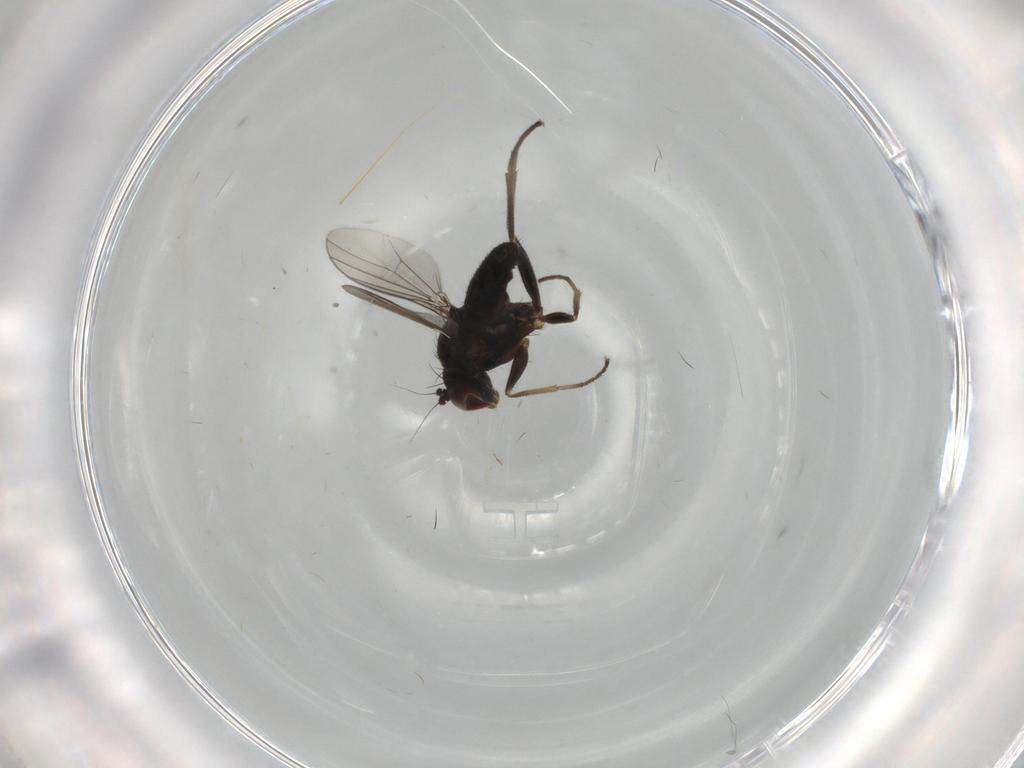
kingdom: Animalia
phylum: Arthropoda
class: Insecta
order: Diptera
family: Dolichopodidae
